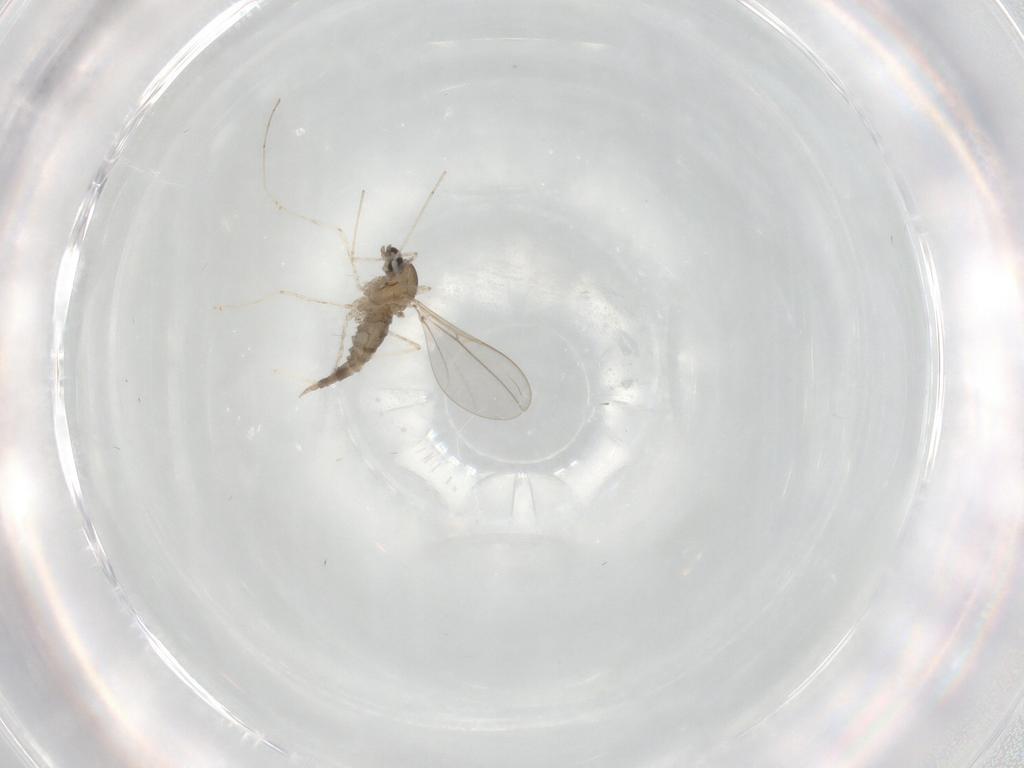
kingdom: Animalia
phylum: Arthropoda
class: Insecta
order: Diptera
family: Cecidomyiidae
